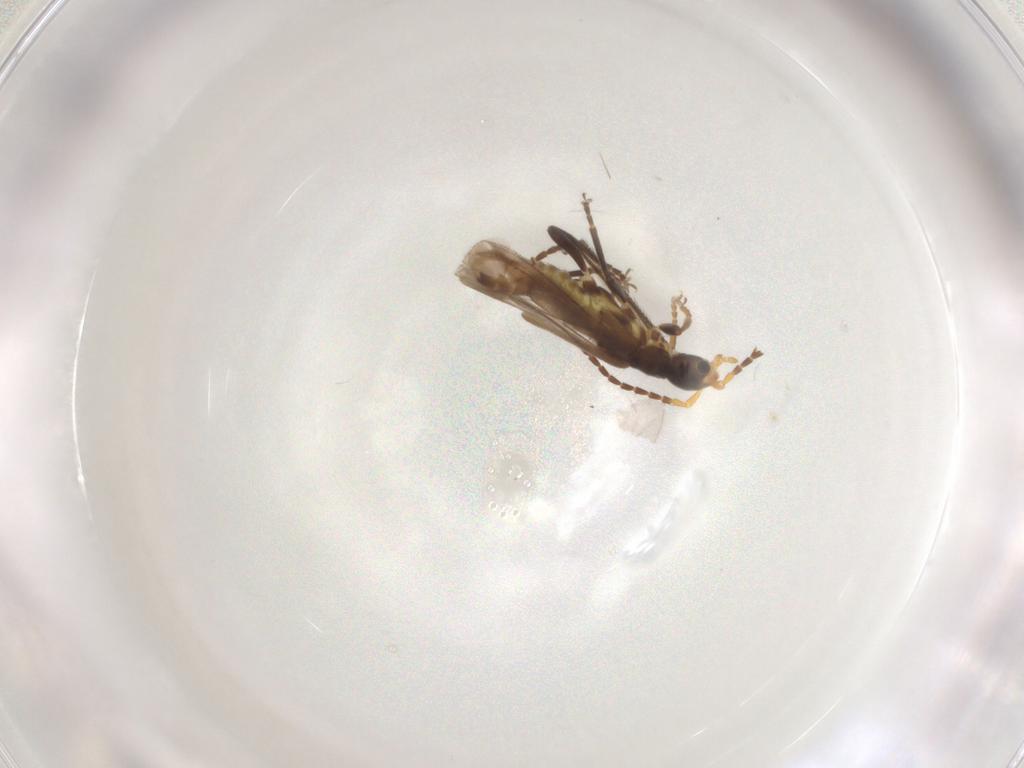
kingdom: Animalia
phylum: Arthropoda
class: Insecta
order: Coleoptera
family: Cantharidae
